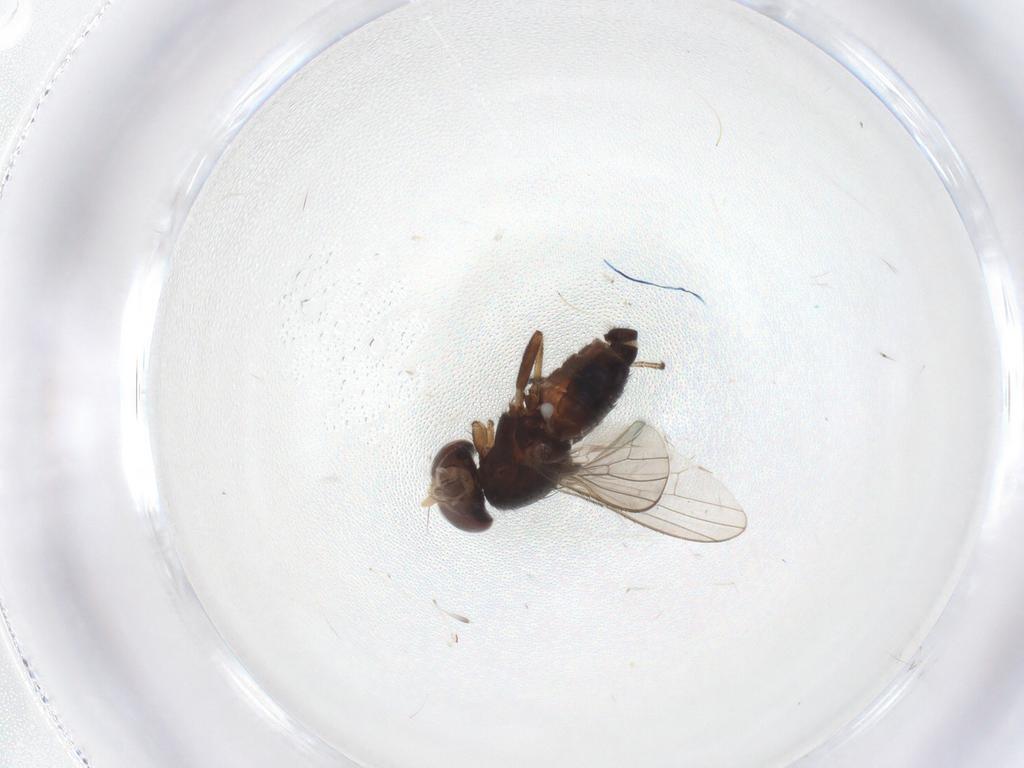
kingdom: Animalia
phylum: Arthropoda
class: Insecta
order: Diptera
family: Heleomyzidae
